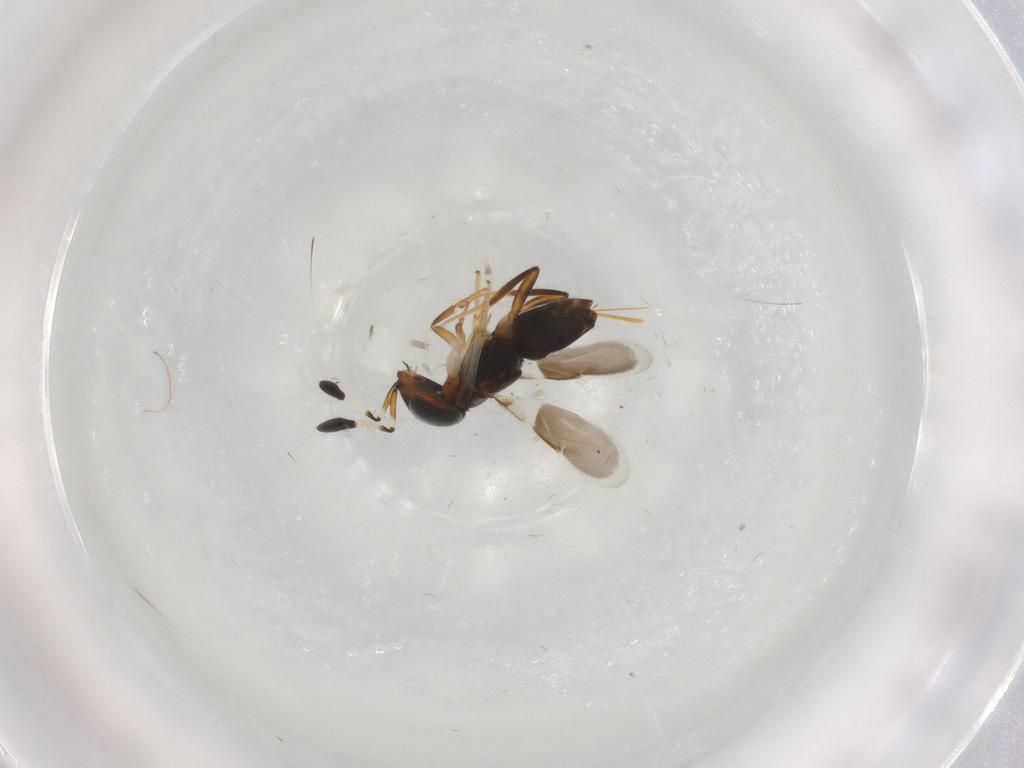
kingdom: Animalia
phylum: Arthropoda
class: Insecta
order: Hymenoptera
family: Encyrtidae
